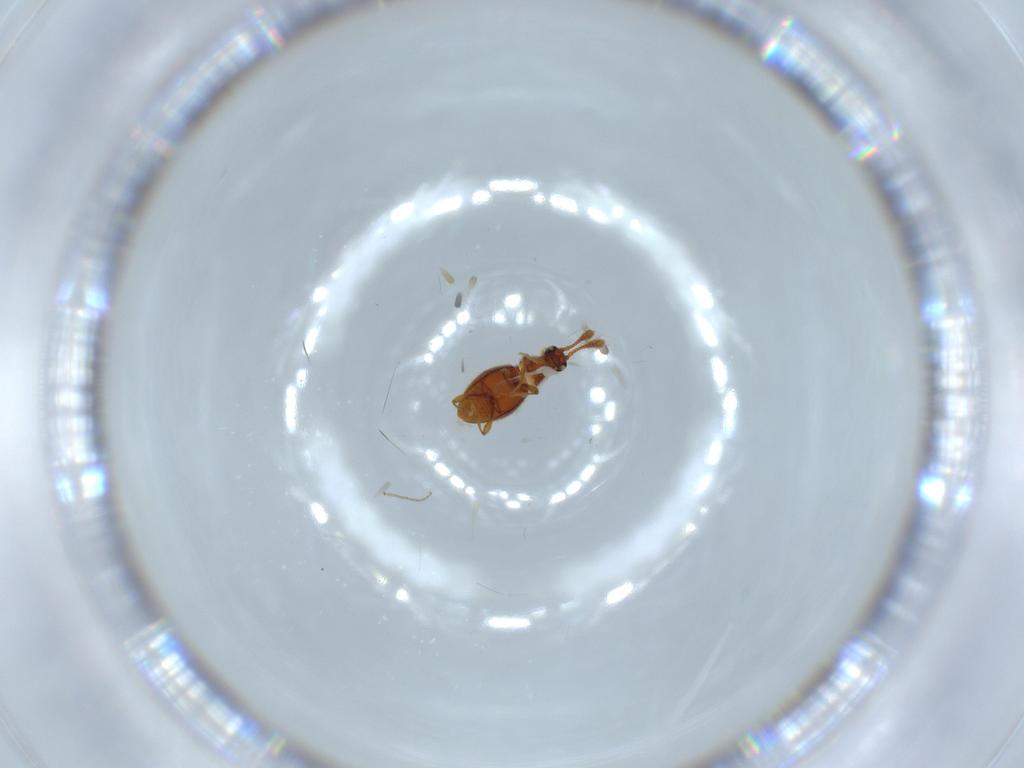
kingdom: Animalia
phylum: Arthropoda
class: Insecta
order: Coleoptera
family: Staphylinidae
